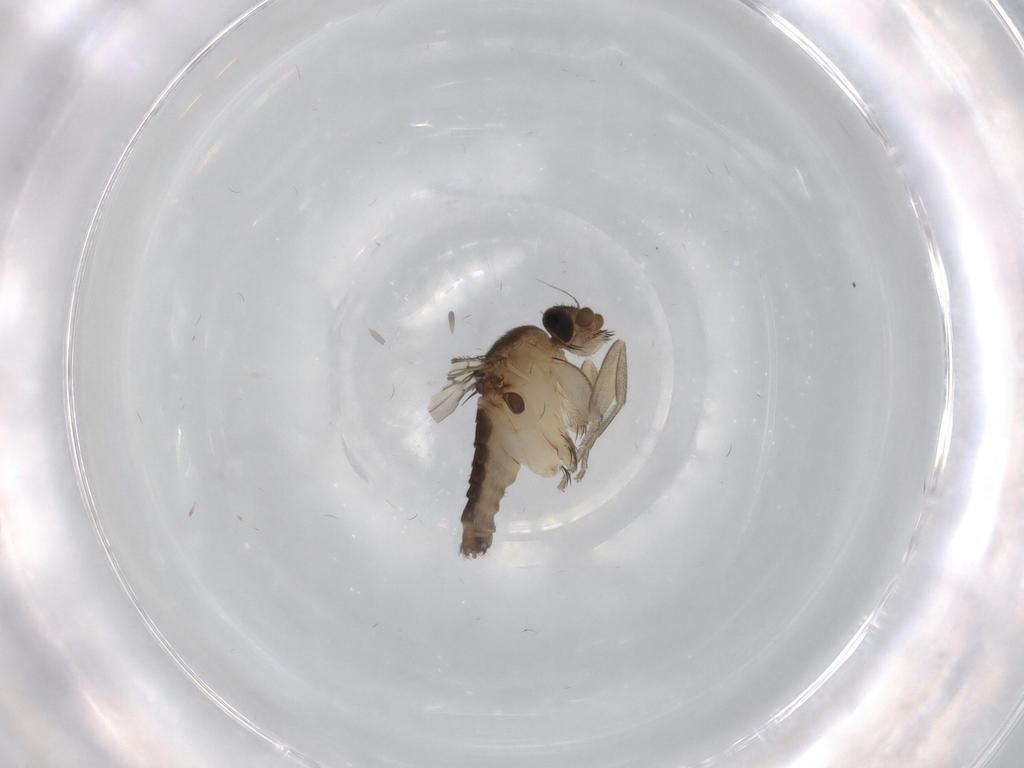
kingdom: Animalia
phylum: Arthropoda
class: Insecta
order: Diptera
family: Phoridae
